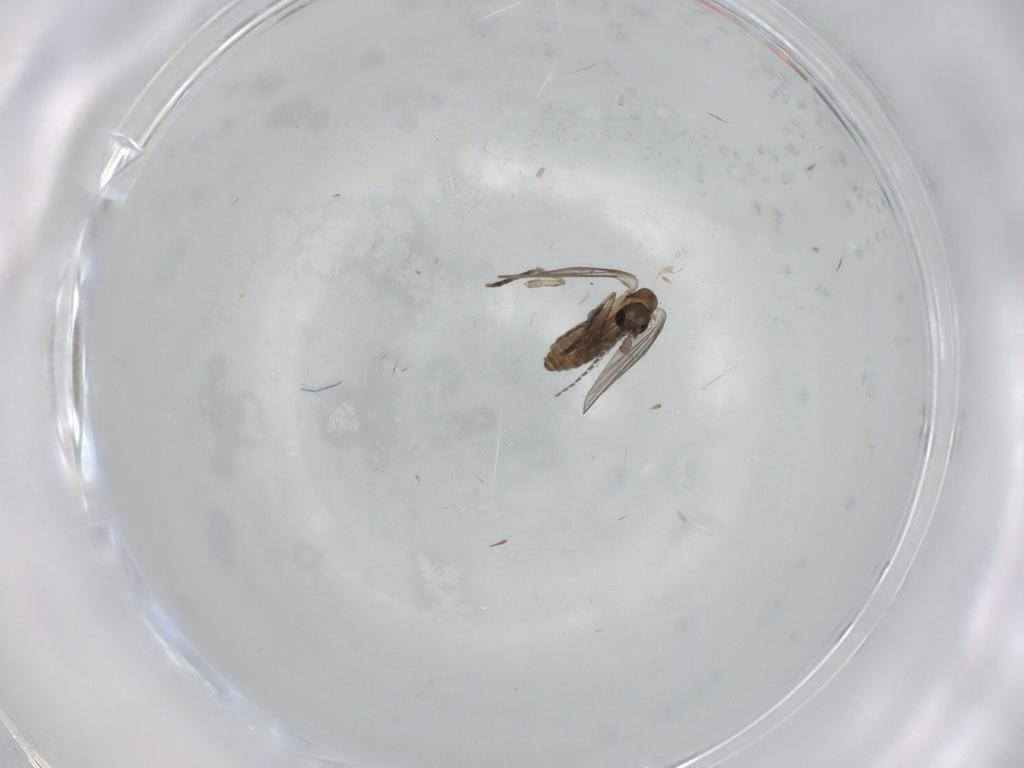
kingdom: Animalia
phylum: Arthropoda
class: Insecta
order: Diptera
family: Psychodidae
